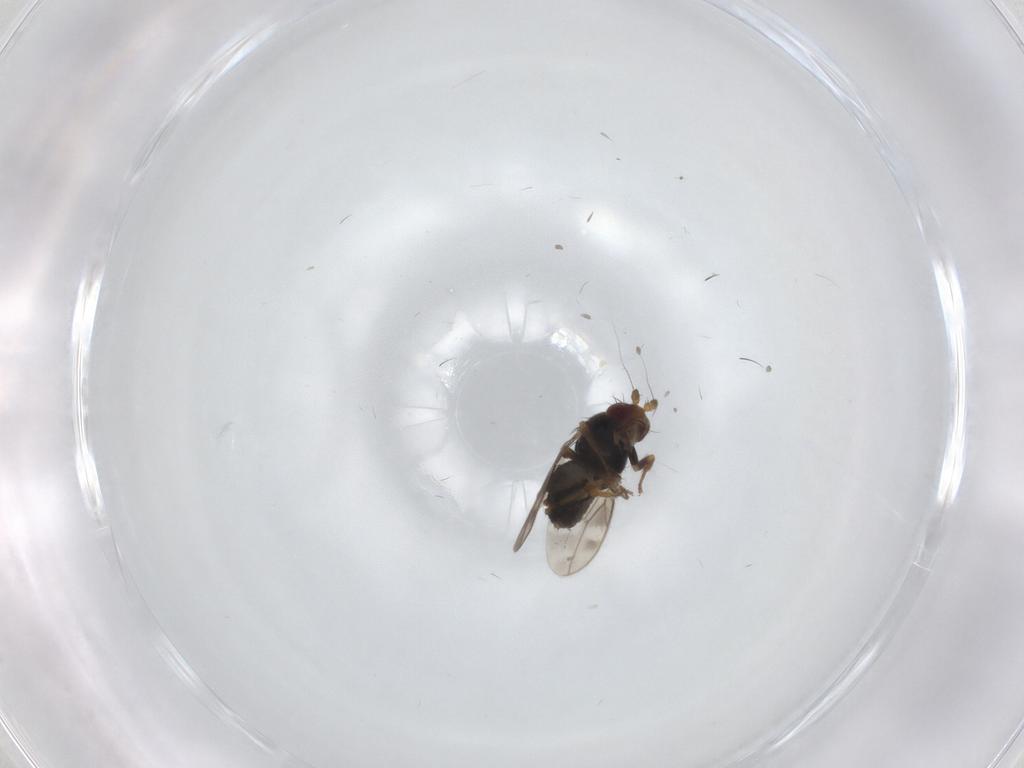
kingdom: Animalia
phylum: Arthropoda
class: Insecta
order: Diptera
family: Sphaeroceridae
